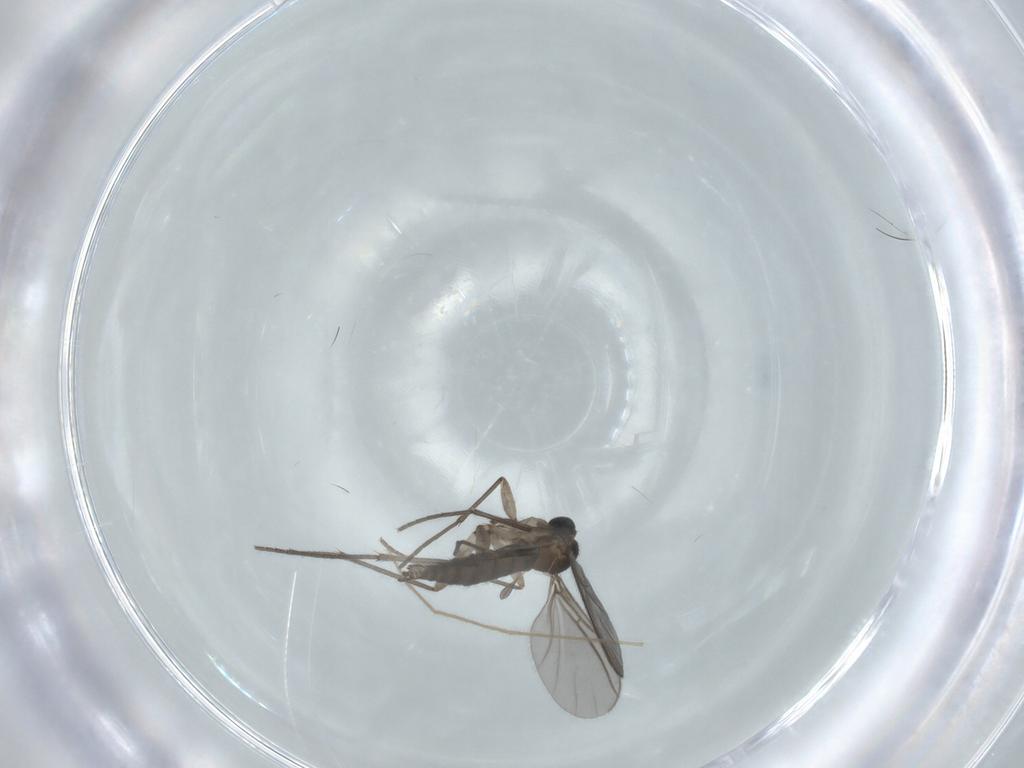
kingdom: Animalia
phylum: Arthropoda
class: Insecta
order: Diptera
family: Sciaridae
